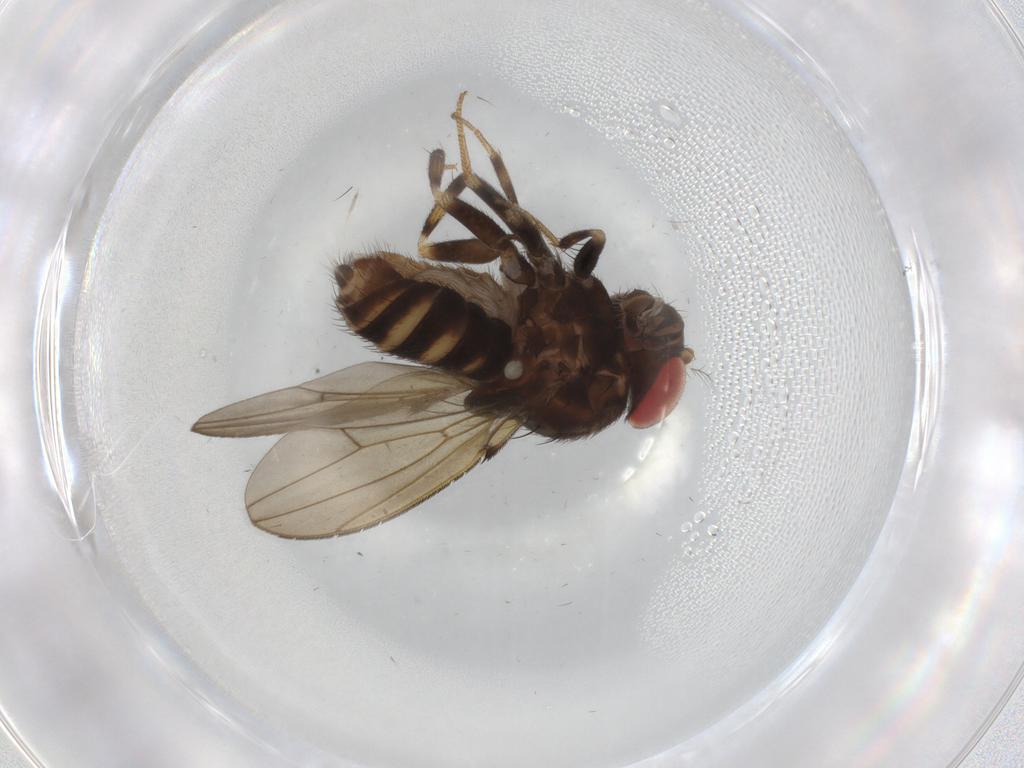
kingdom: Animalia
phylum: Arthropoda
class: Insecta
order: Diptera
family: Drosophilidae
